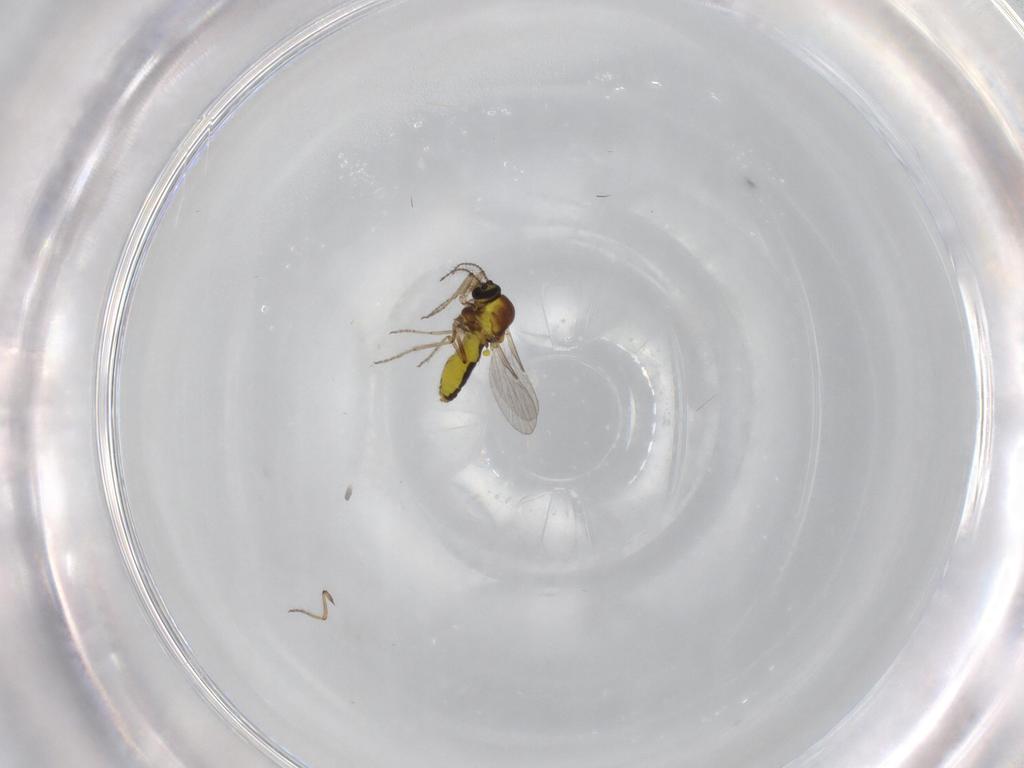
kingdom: Animalia
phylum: Arthropoda
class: Insecta
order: Diptera
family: Ceratopogonidae
